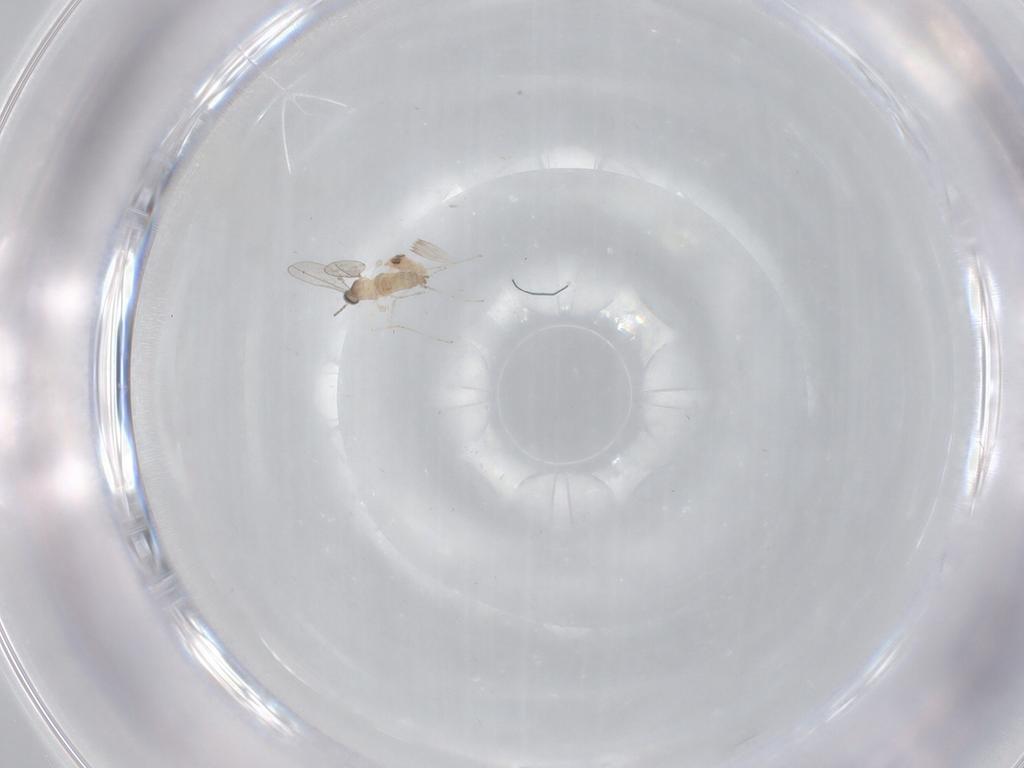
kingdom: Animalia
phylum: Arthropoda
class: Insecta
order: Diptera
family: Cecidomyiidae
